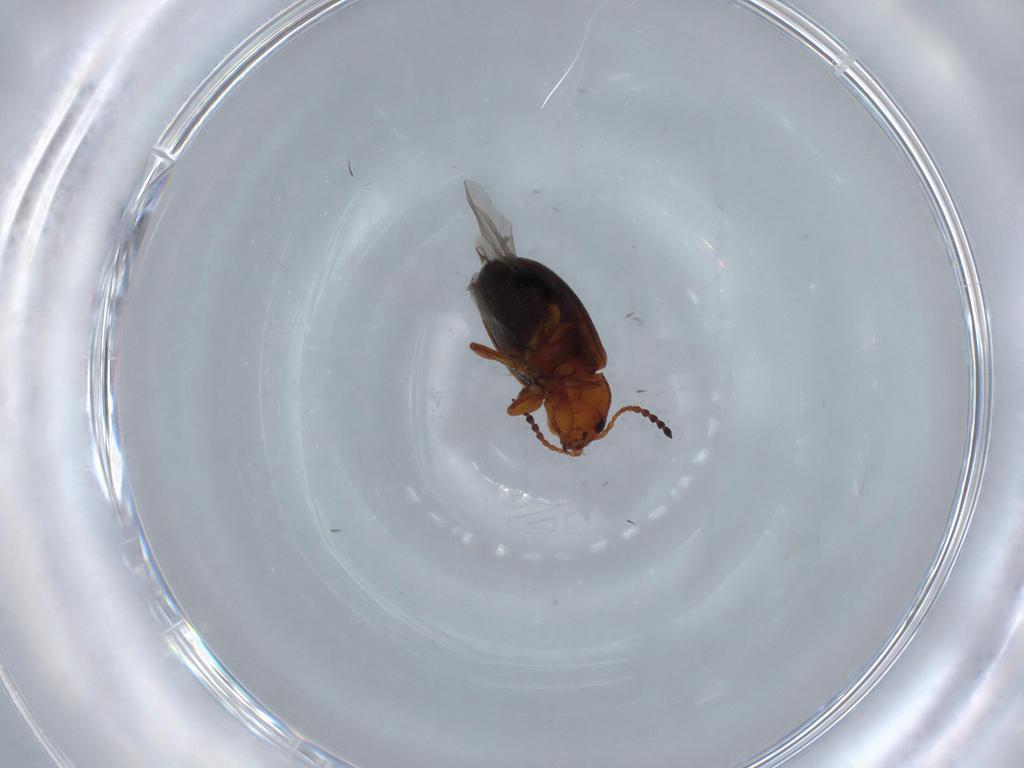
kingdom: Animalia
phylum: Arthropoda
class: Insecta
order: Coleoptera
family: Chrysomelidae
